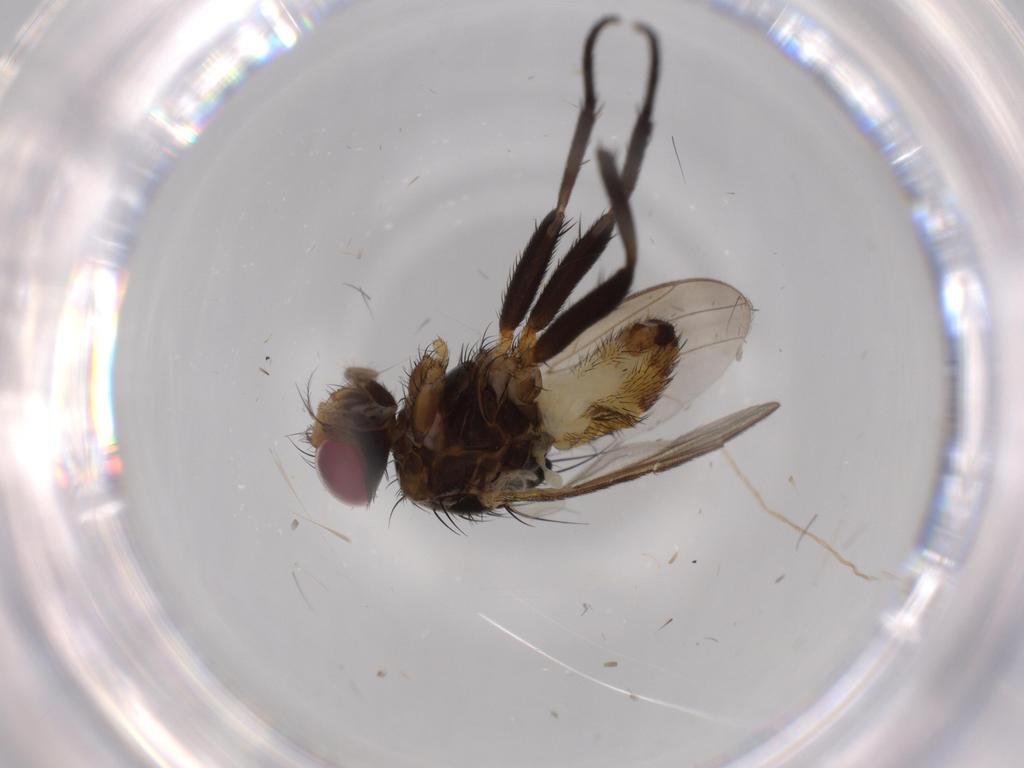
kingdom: Animalia
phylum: Arthropoda
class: Insecta
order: Diptera
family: Anthomyiidae
